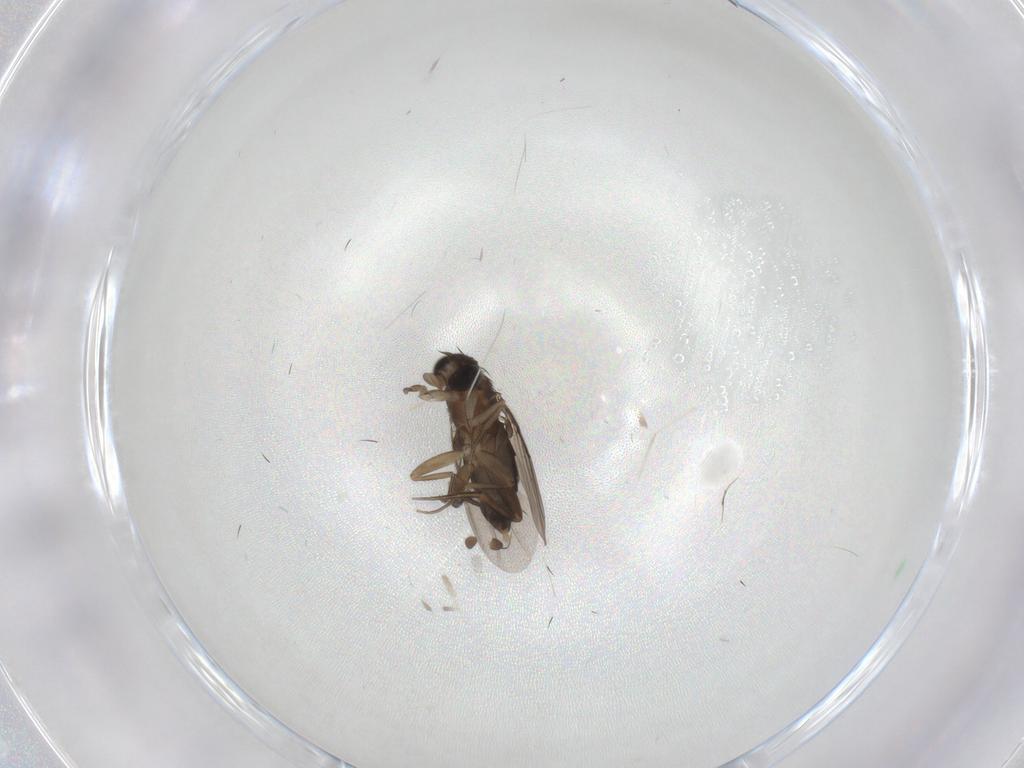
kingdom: Animalia
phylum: Arthropoda
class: Insecta
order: Diptera
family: Phoridae
